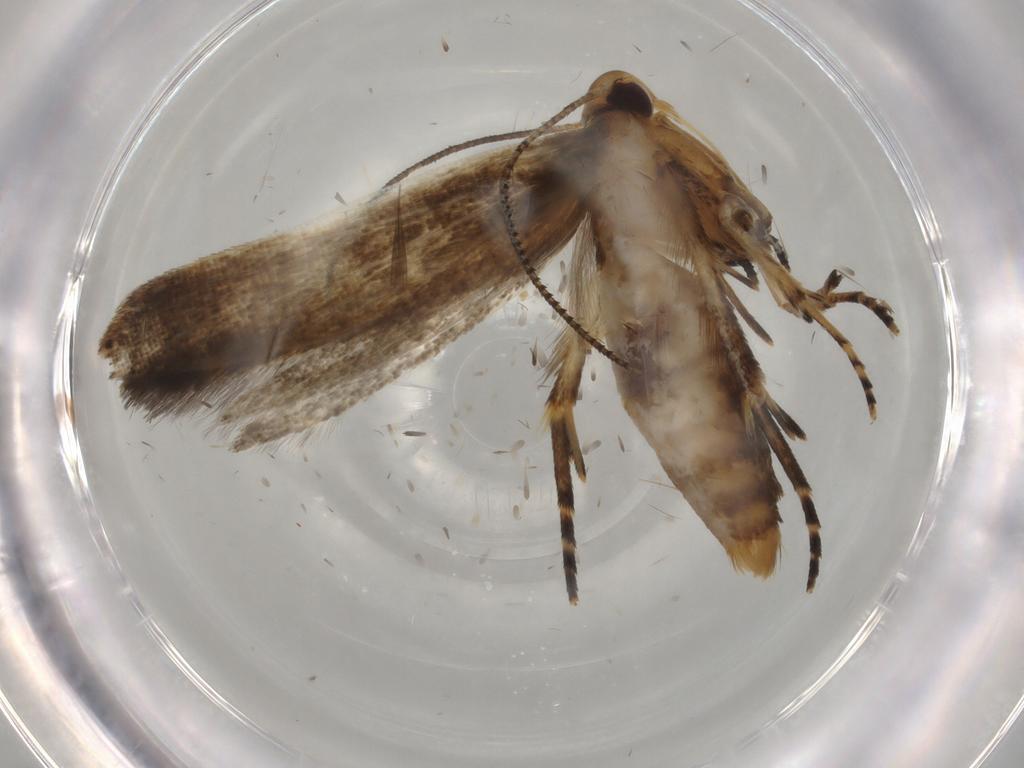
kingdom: Animalia
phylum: Arthropoda
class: Insecta
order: Lepidoptera
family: Cosmopterigidae
